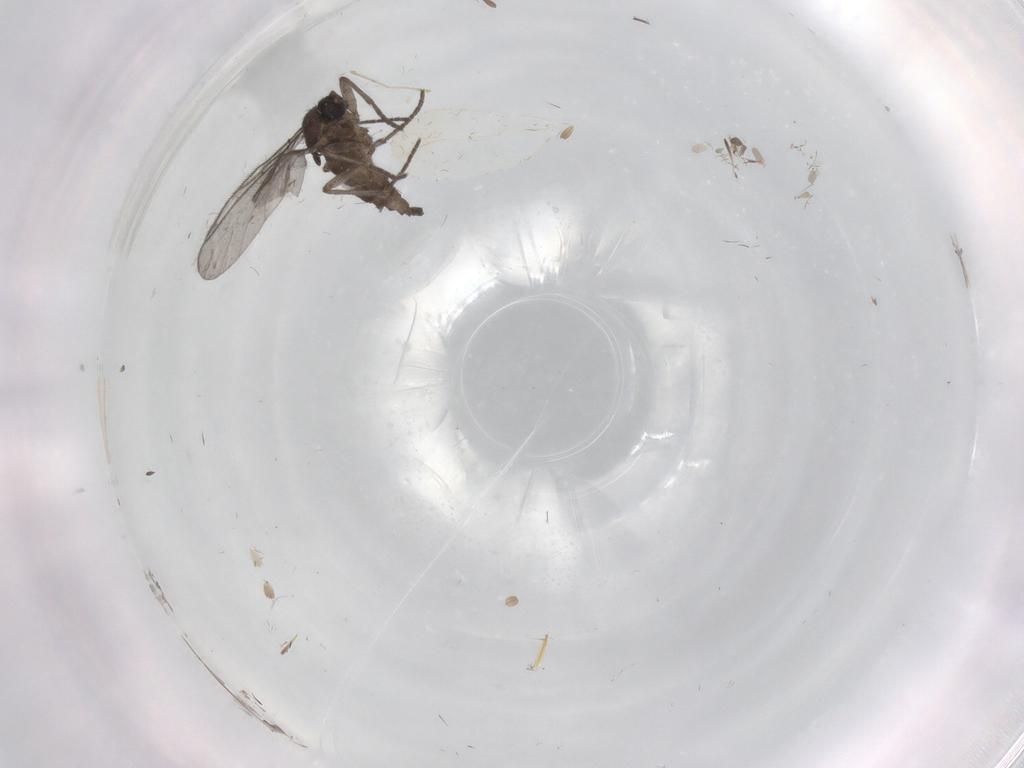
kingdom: Animalia
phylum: Arthropoda
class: Insecta
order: Diptera
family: Sciaridae
